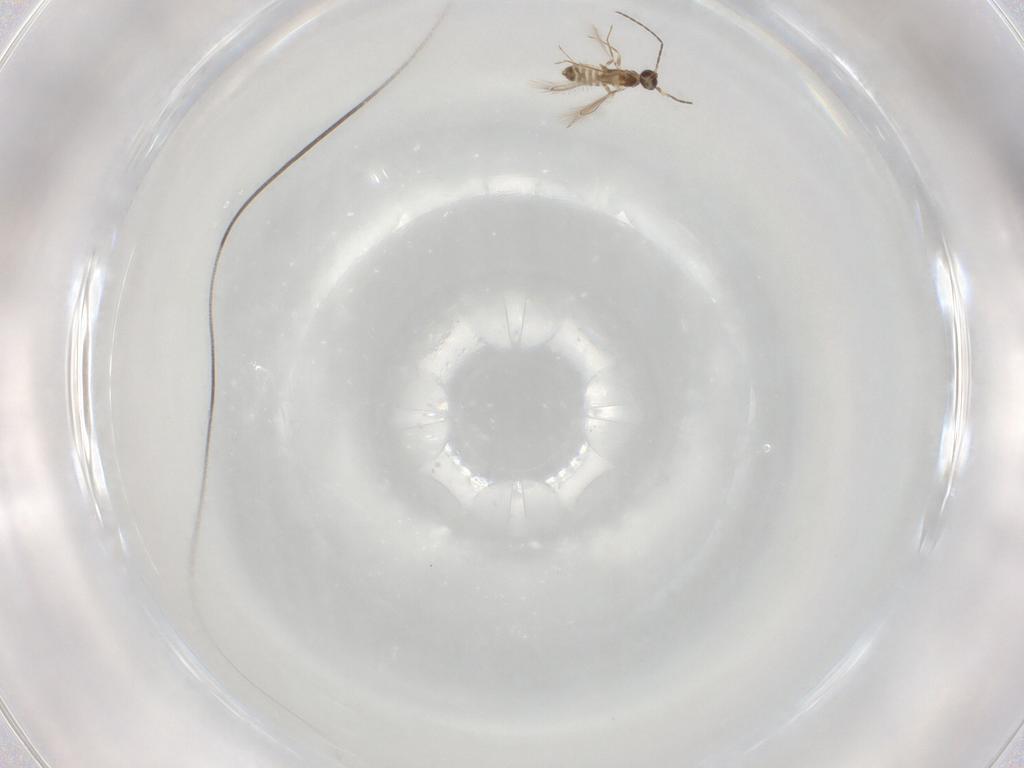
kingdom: Animalia
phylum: Arthropoda
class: Insecta
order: Hymenoptera
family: Mymaridae
